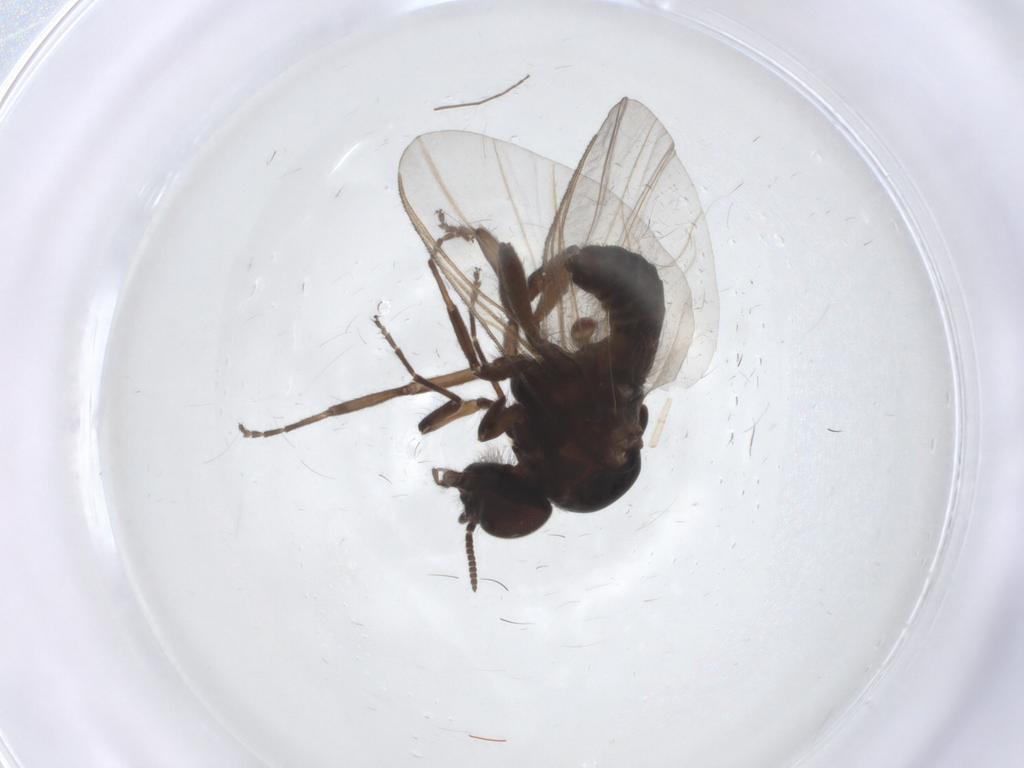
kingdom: Animalia
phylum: Arthropoda
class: Insecta
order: Diptera
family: Simuliidae
